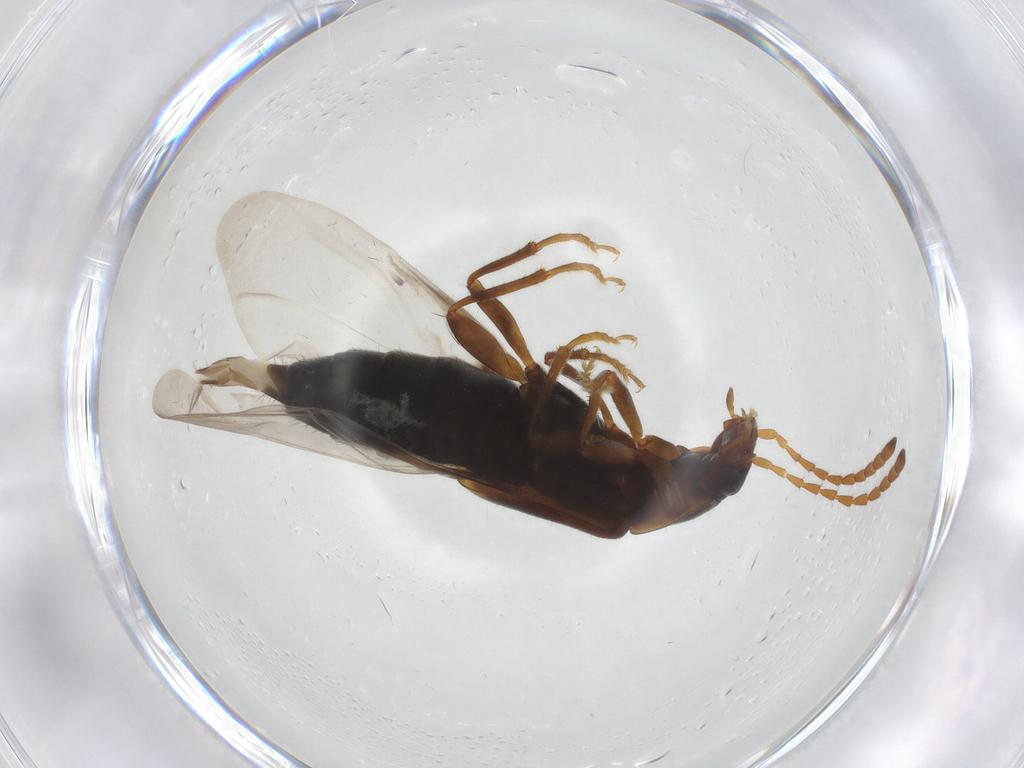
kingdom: Animalia
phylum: Arthropoda
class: Insecta
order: Coleoptera
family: Staphylinidae
